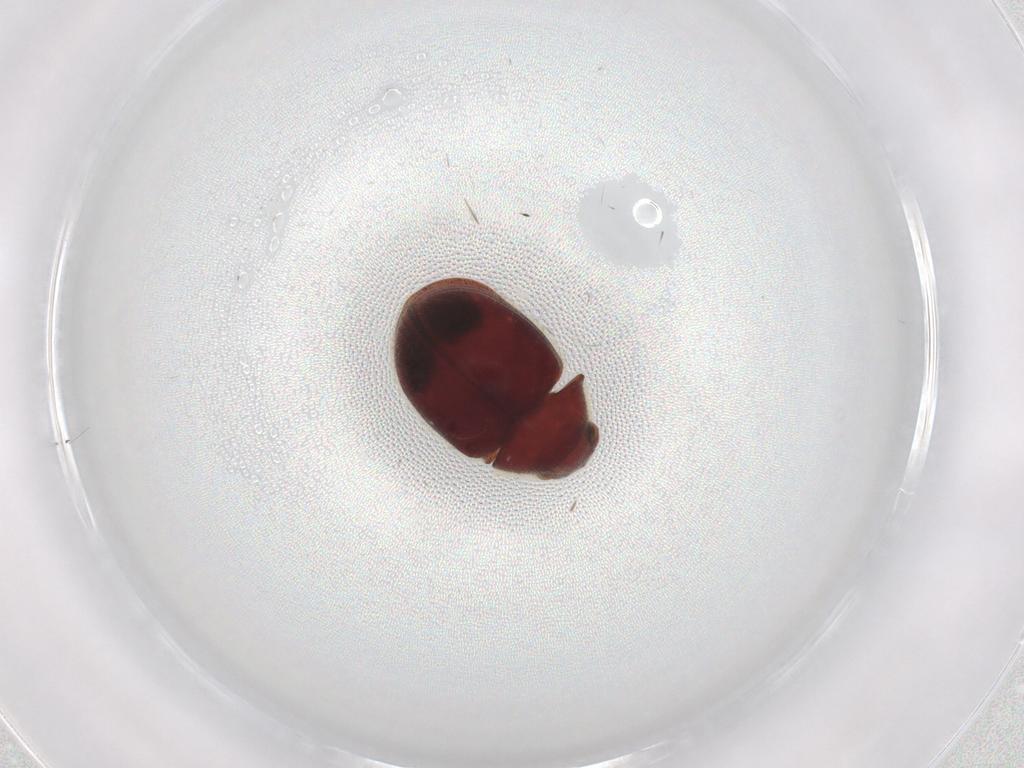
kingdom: Animalia
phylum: Arthropoda
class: Insecta
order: Coleoptera
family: Ptinidae
